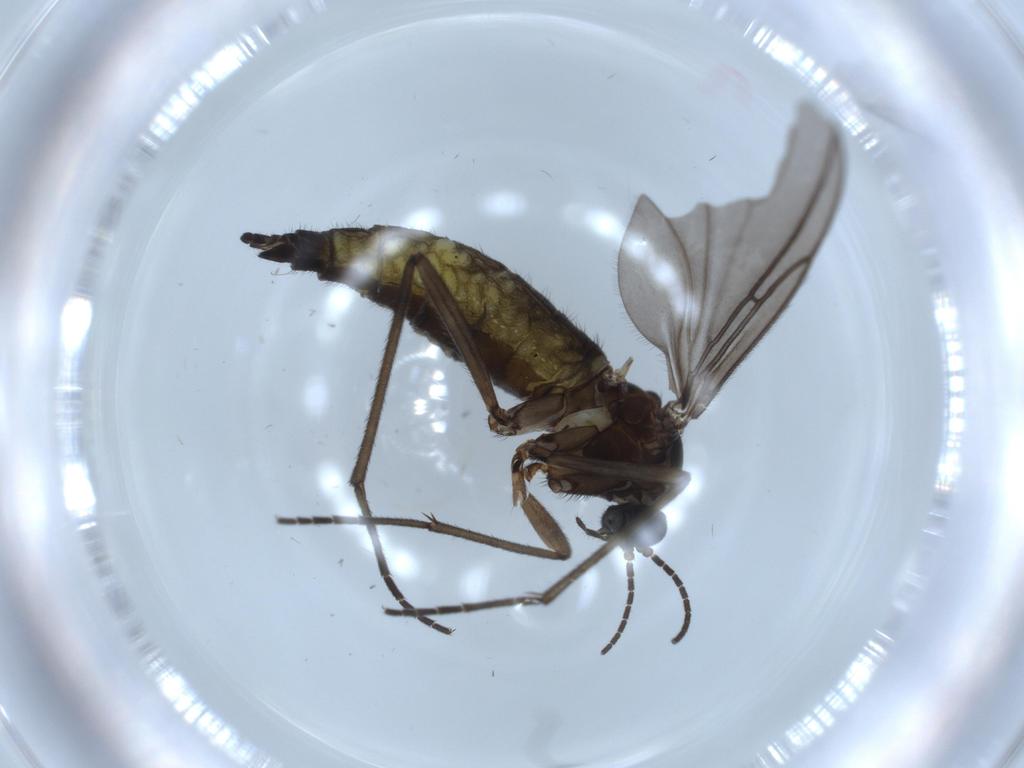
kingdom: Animalia
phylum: Arthropoda
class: Insecta
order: Diptera
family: Sciaridae
